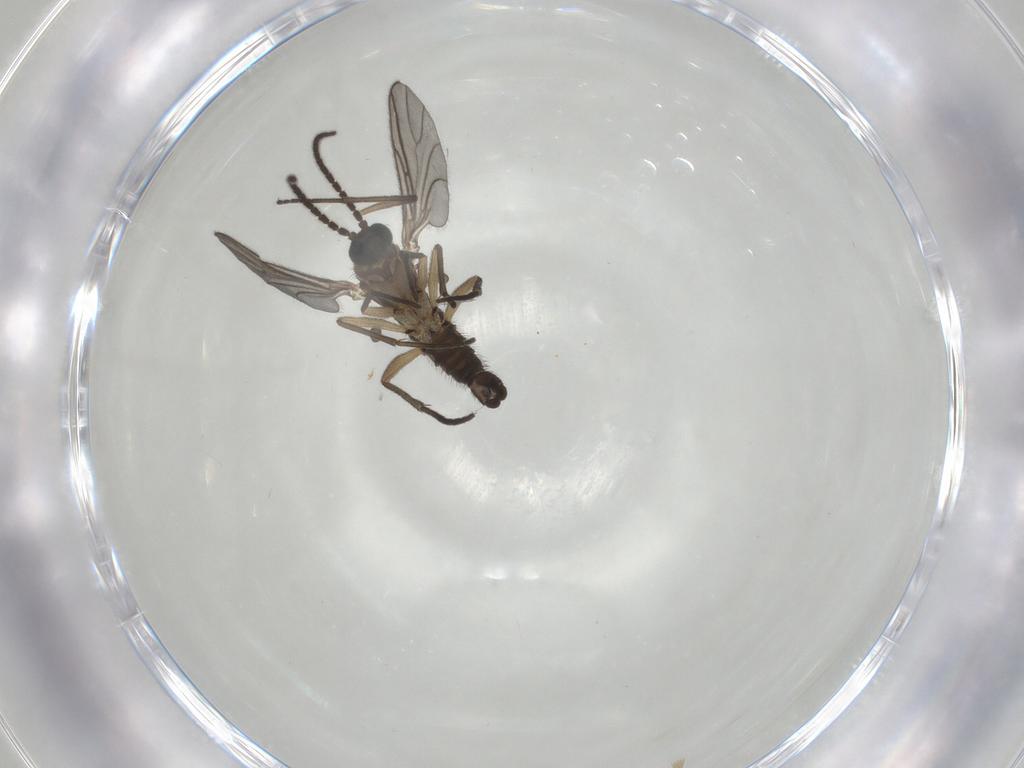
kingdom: Animalia
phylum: Arthropoda
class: Insecta
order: Diptera
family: Sciaridae
